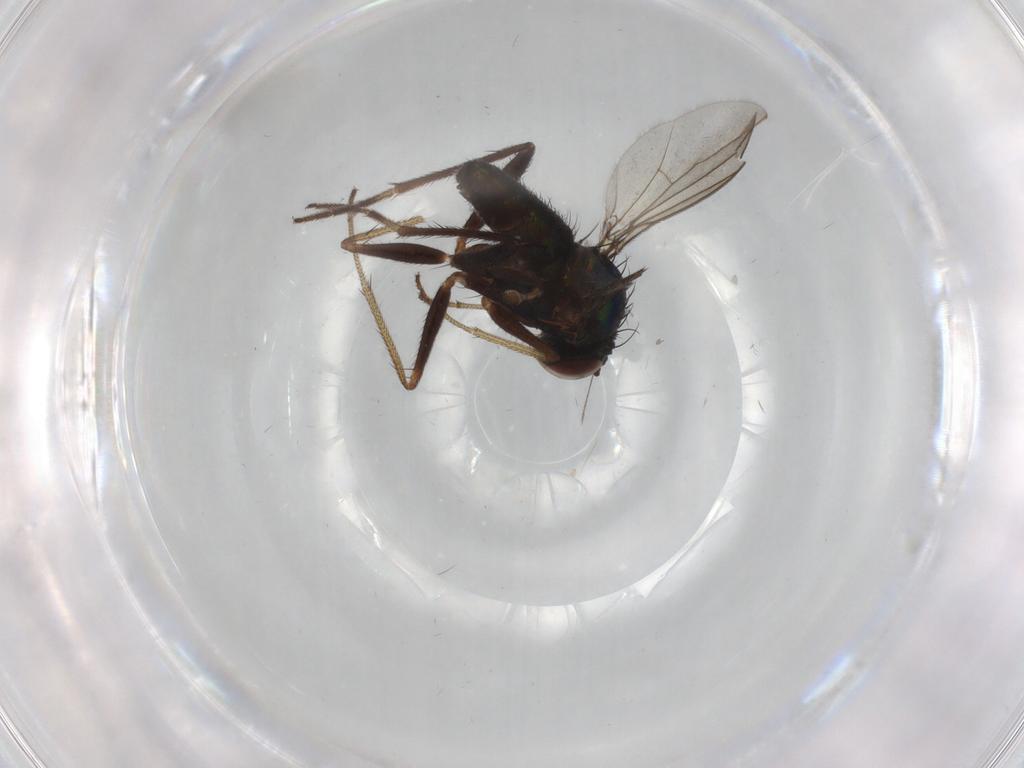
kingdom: Animalia
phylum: Arthropoda
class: Insecta
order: Diptera
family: Dolichopodidae
